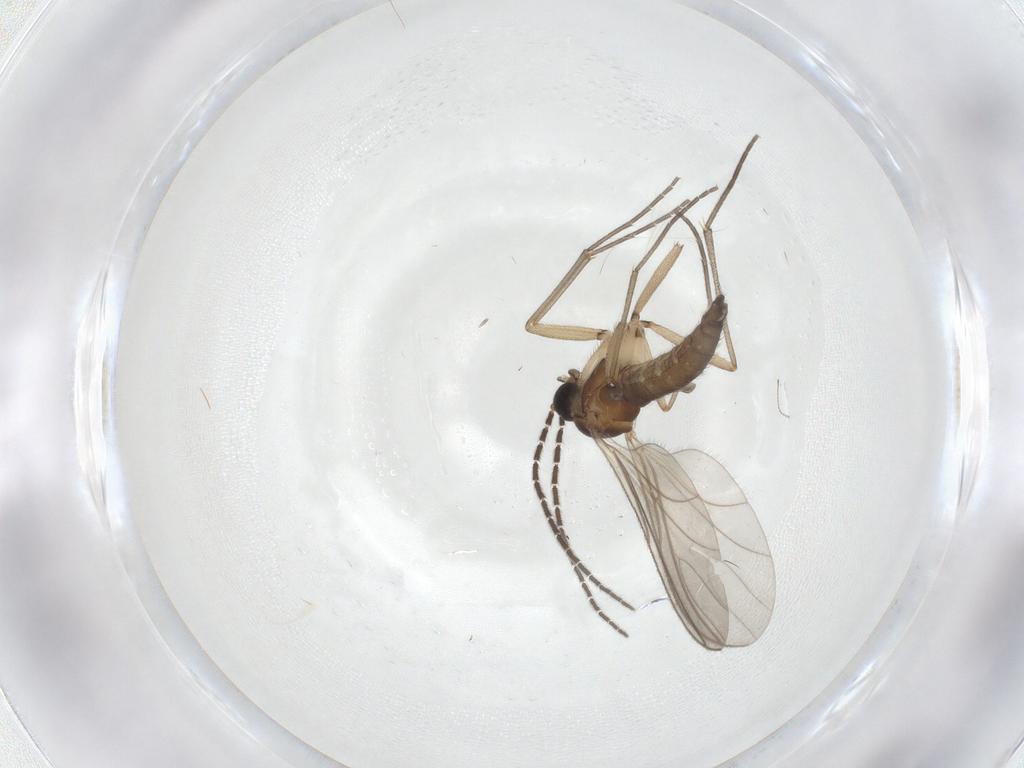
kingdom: Animalia
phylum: Arthropoda
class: Insecta
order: Diptera
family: Sciaridae
